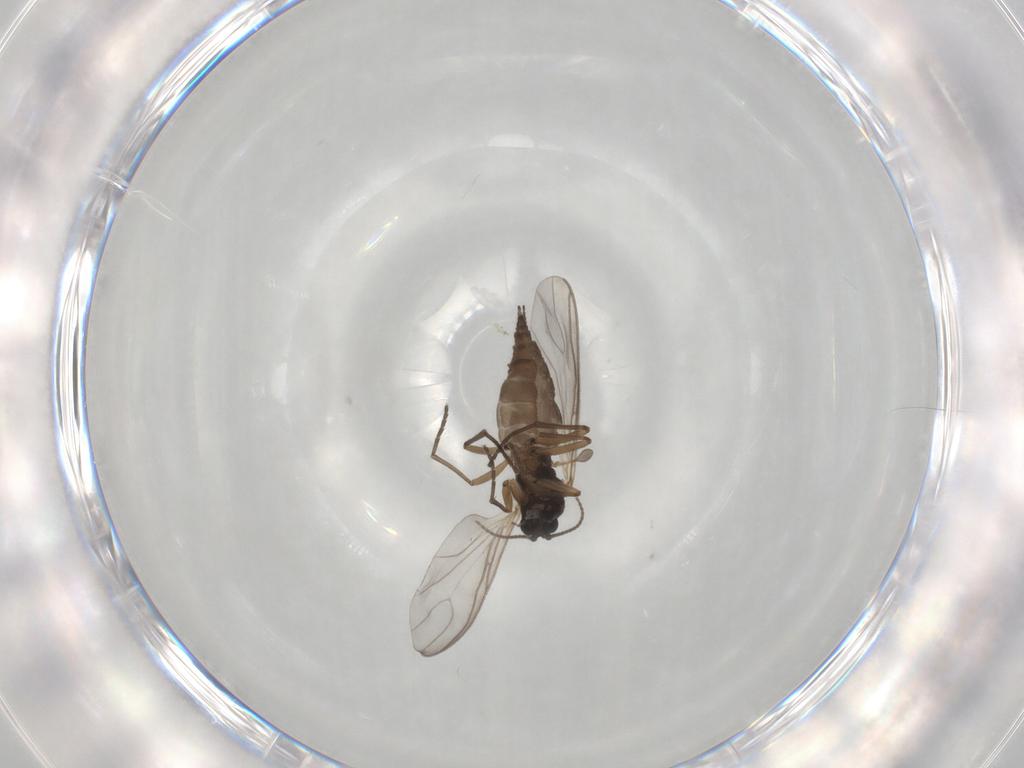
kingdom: Animalia
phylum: Arthropoda
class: Insecta
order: Diptera
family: Sciaridae
